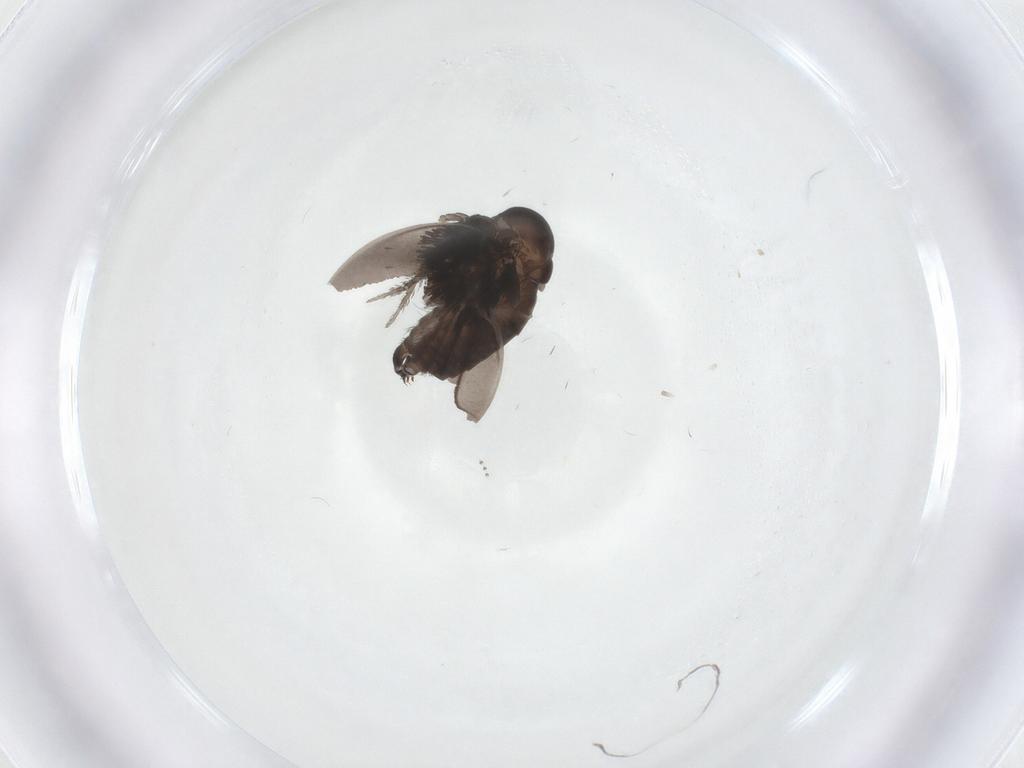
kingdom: Animalia
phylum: Arthropoda
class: Insecta
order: Diptera
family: Psychodidae
